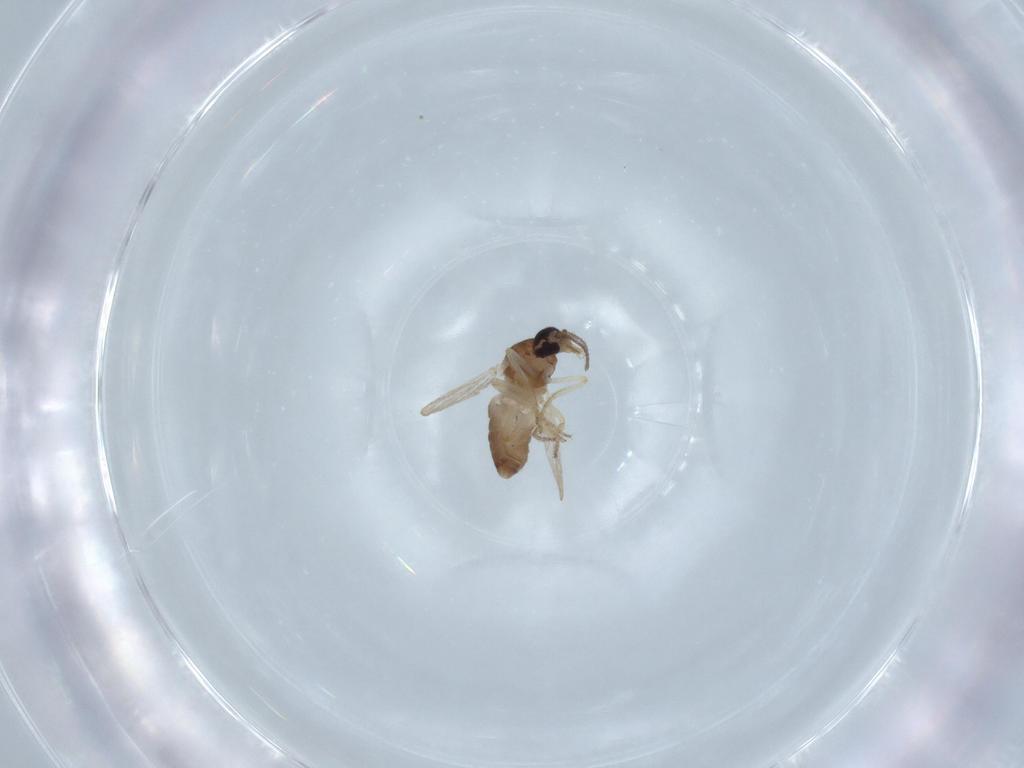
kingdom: Animalia
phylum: Arthropoda
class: Insecta
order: Diptera
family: Ceratopogonidae
